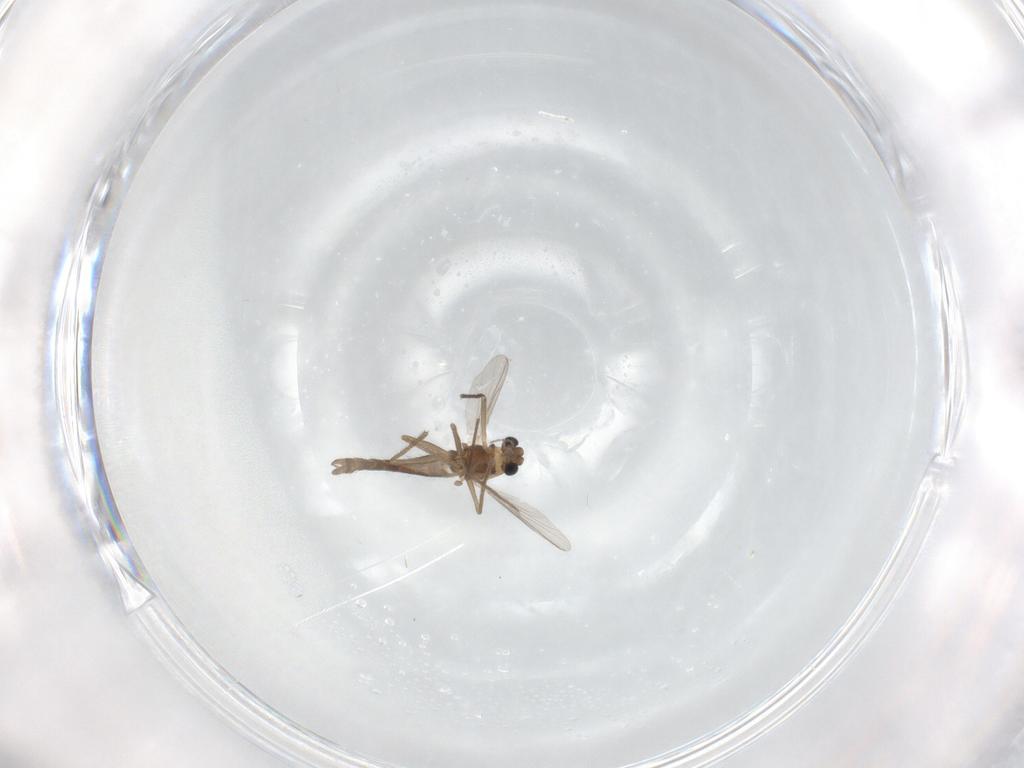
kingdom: Animalia
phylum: Arthropoda
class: Insecta
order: Diptera
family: Chironomidae
